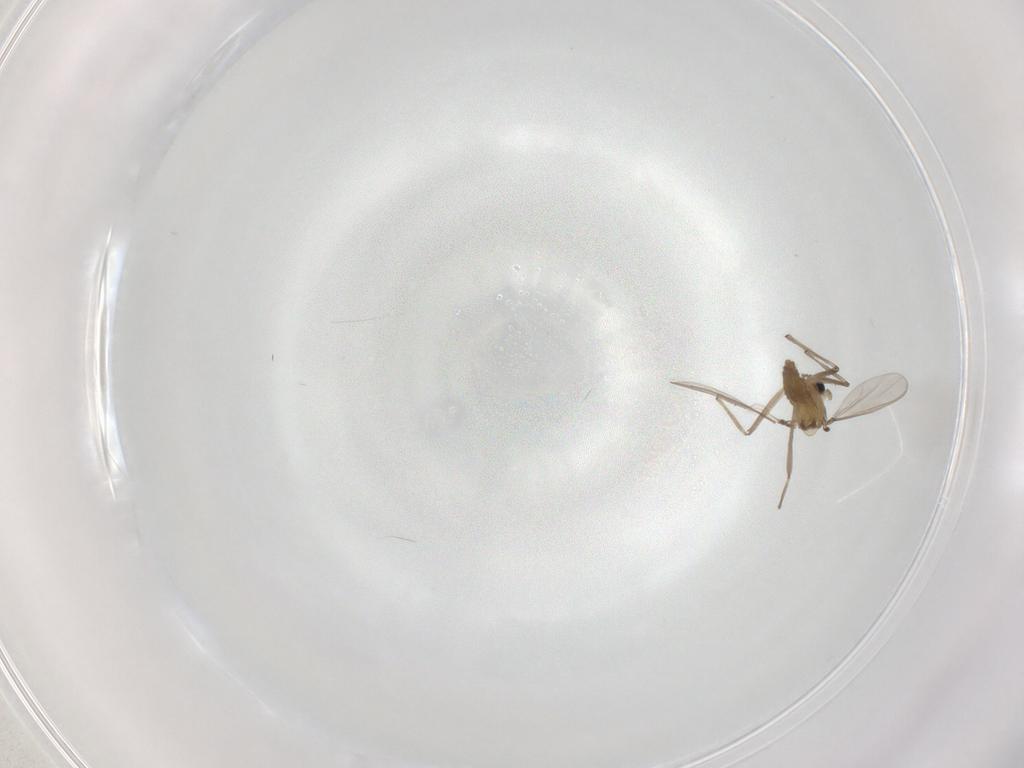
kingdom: Animalia
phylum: Arthropoda
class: Insecta
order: Diptera
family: Chironomidae
